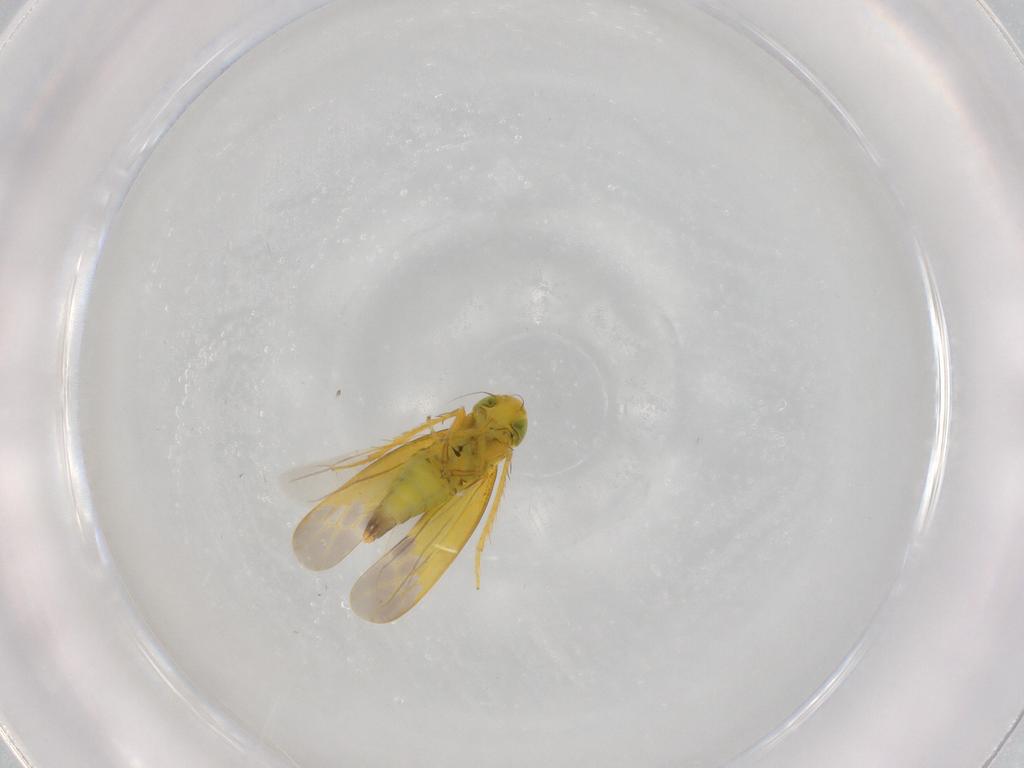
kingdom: Animalia
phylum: Arthropoda
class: Insecta
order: Hemiptera
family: Cicadellidae
